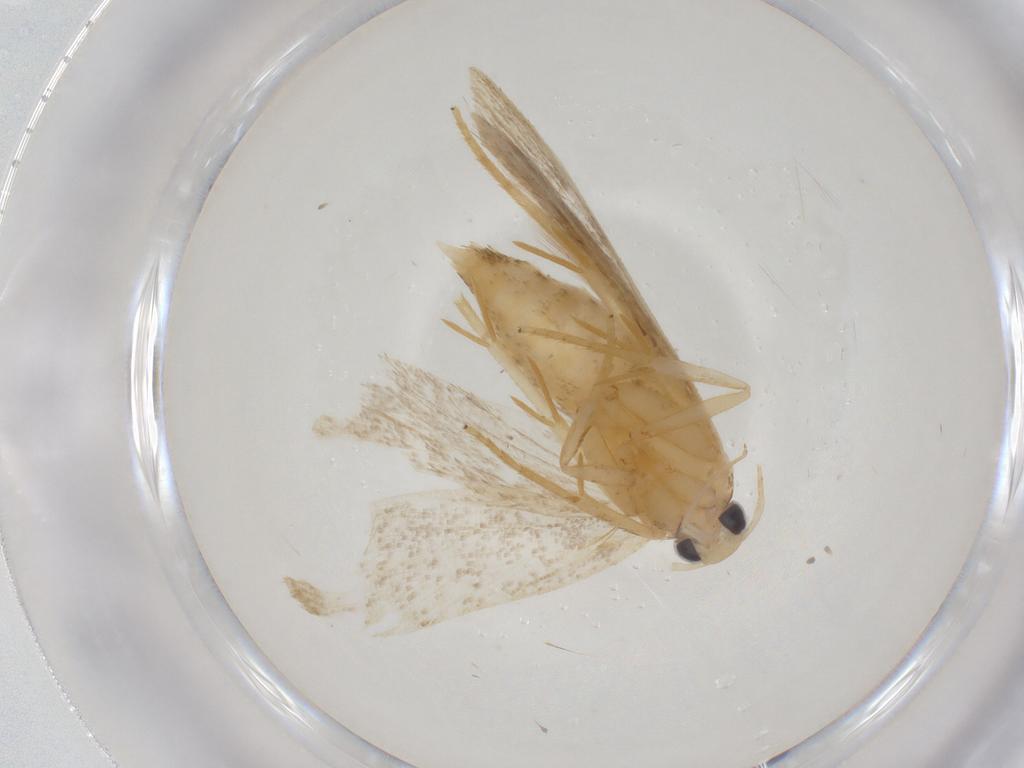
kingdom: Animalia
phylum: Arthropoda
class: Insecta
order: Lepidoptera
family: Gelechiidae
